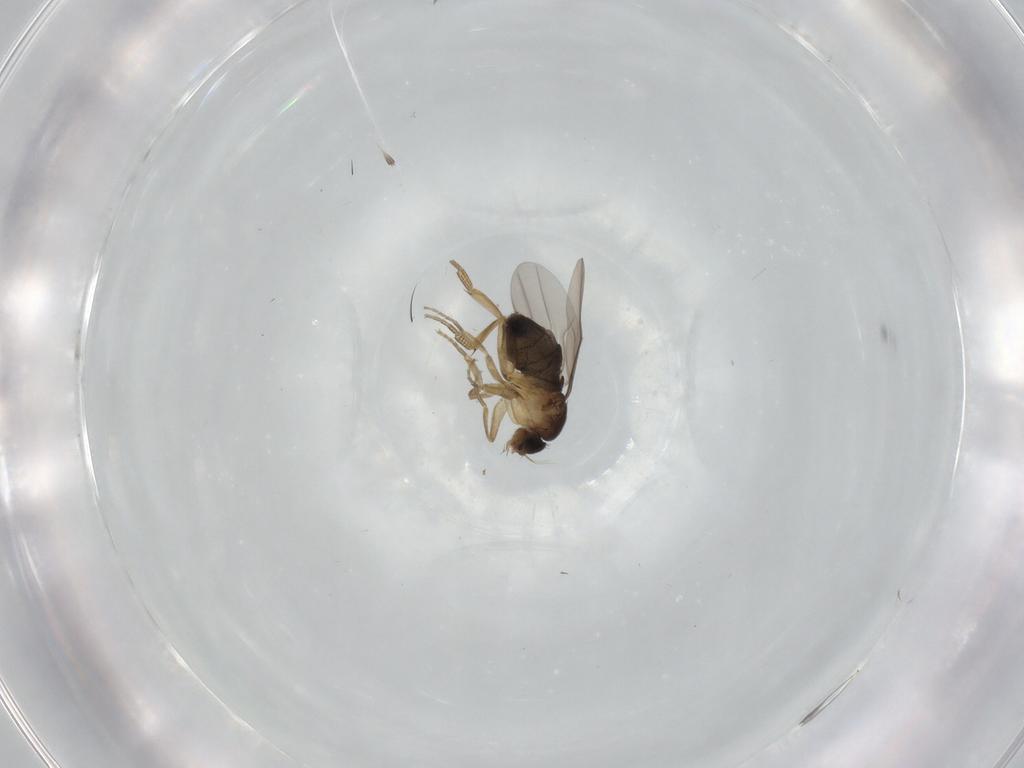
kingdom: Animalia
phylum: Arthropoda
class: Insecta
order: Diptera
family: Phoridae
